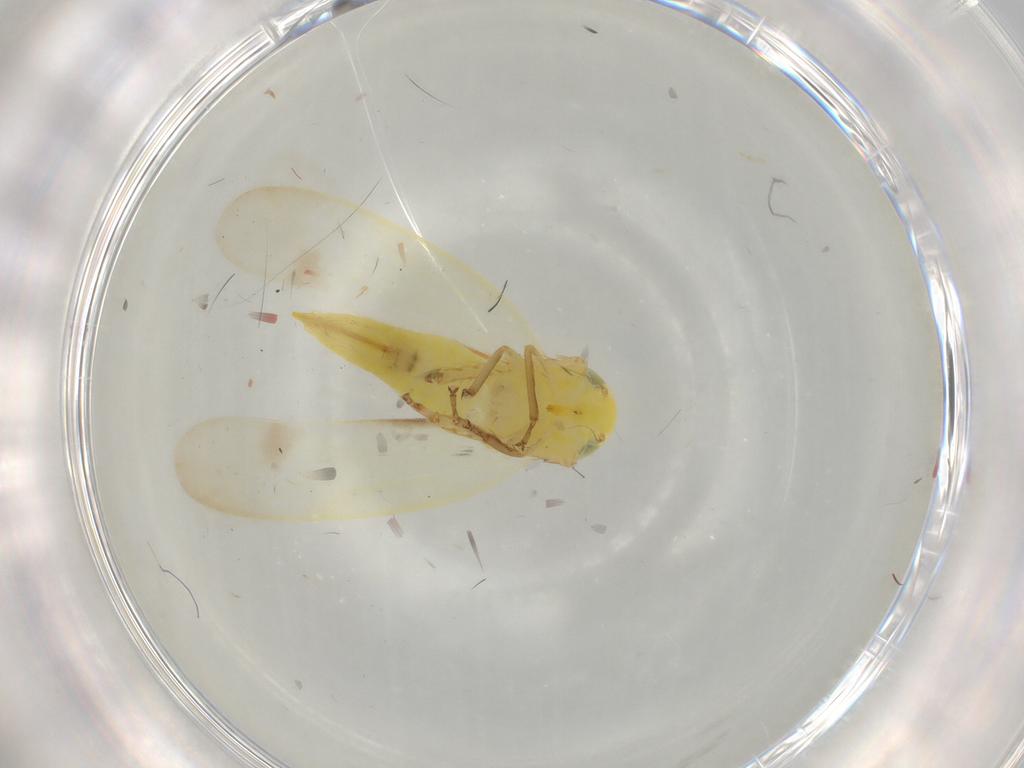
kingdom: Animalia
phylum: Arthropoda
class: Insecta
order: Hemiptera
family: Cicadellidae
